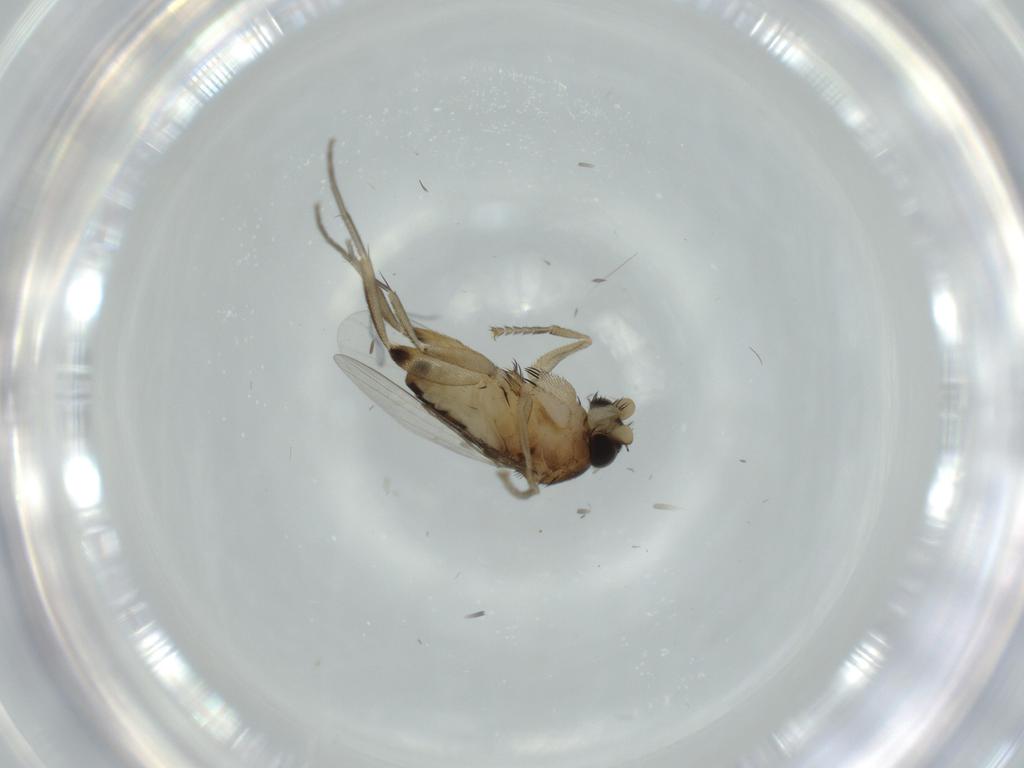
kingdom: Animalia
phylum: Arthropoda
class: Insecta
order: Diptera
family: Phoridae
